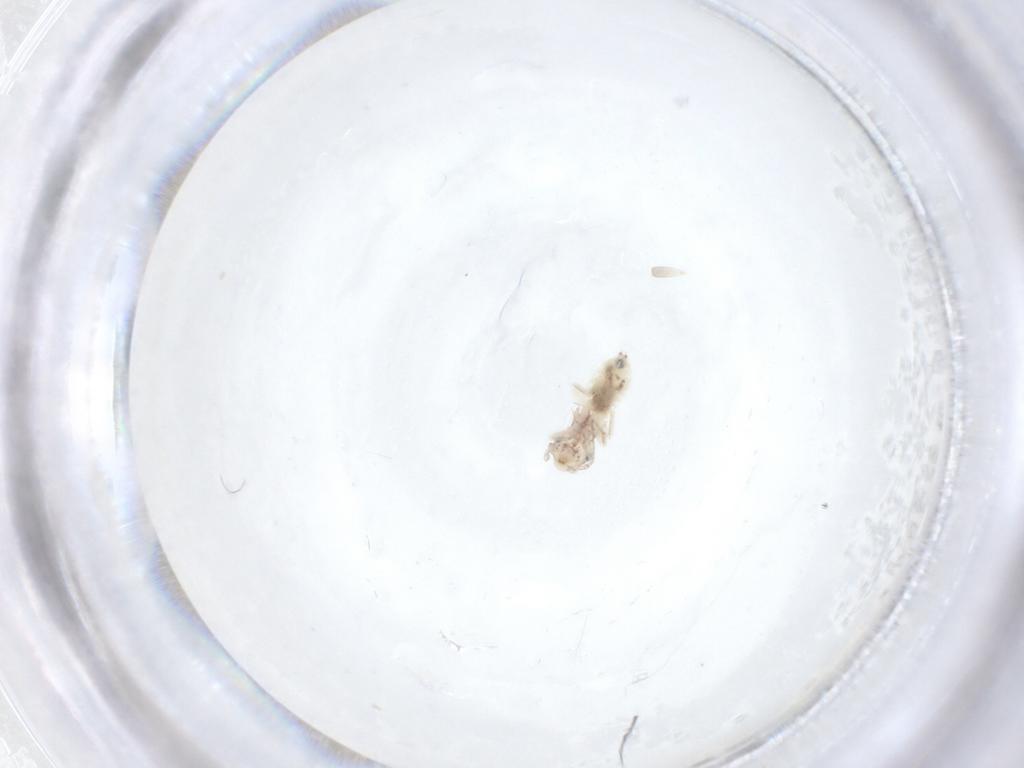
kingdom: Animalia
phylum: Arthropoda
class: Insecta
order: Psocodea
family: Lepidopsocidae
